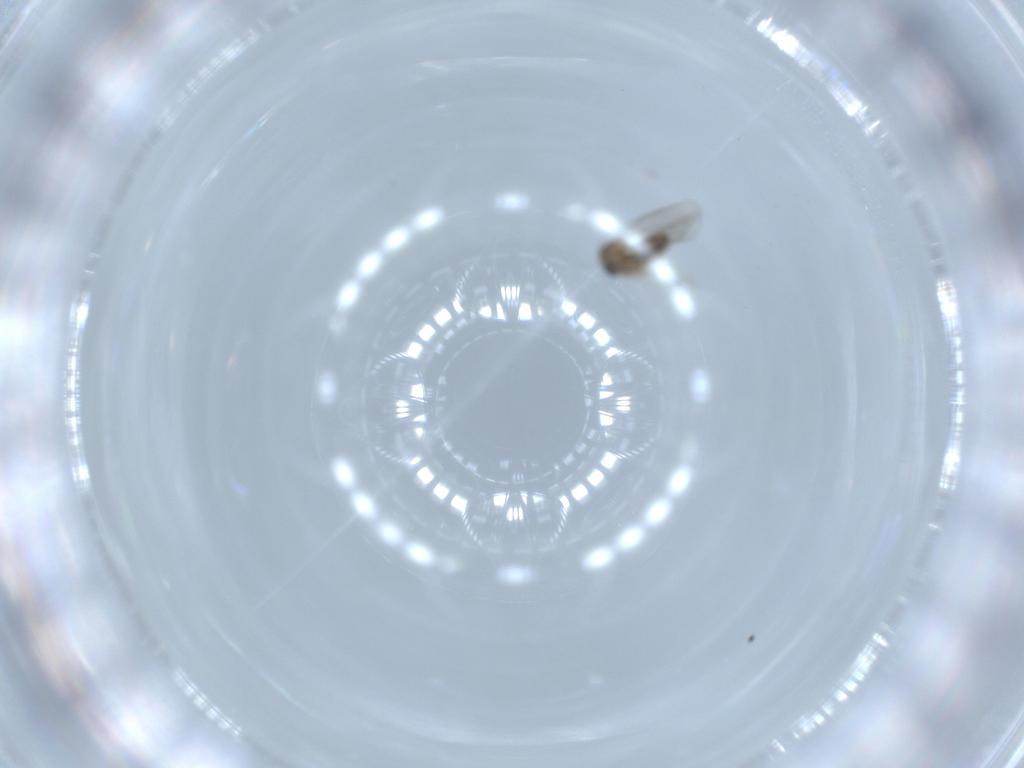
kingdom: Animalia
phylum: Arthropoda
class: Insecta
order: Diptera
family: Cecidomyiidae
